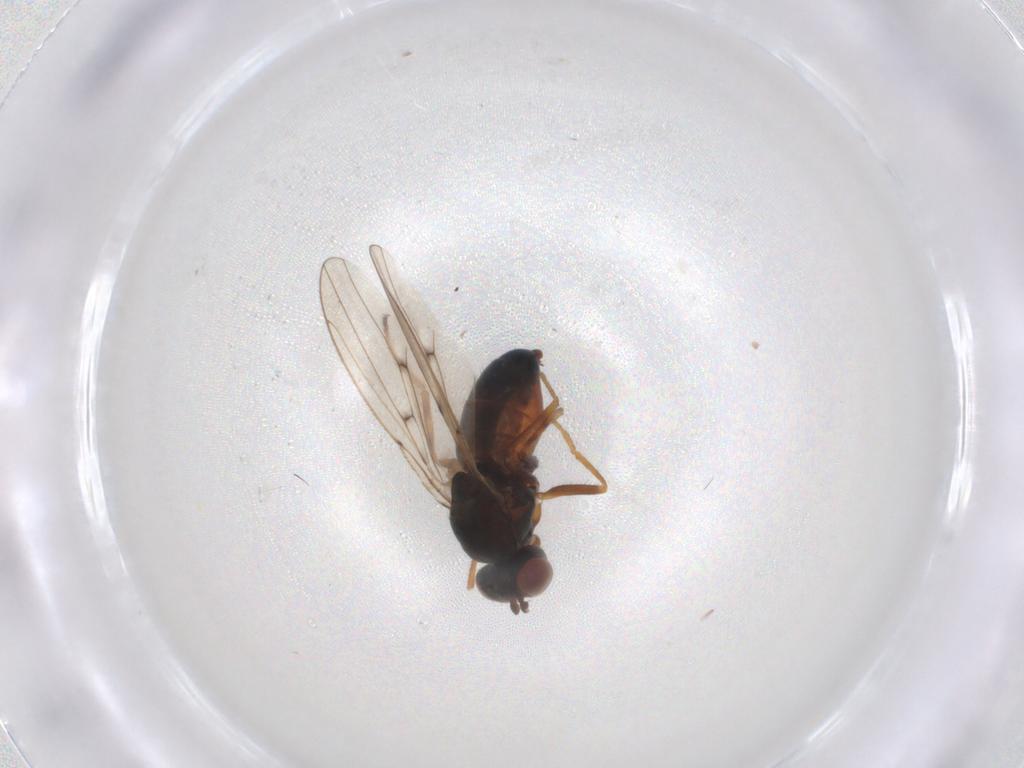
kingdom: Animalia
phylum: Arthropoda
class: Insecta
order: Diptera
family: Ephydridae
